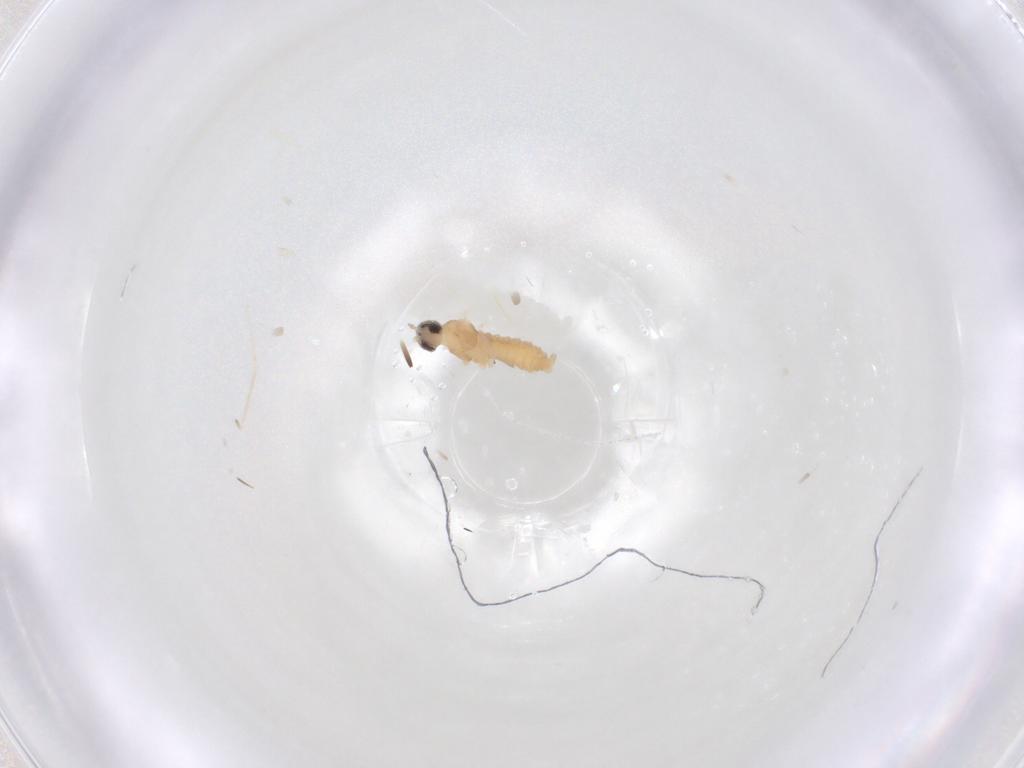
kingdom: Animalia
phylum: Arthropoda
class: Insecta
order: Diptera
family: Cecidomyiidae
